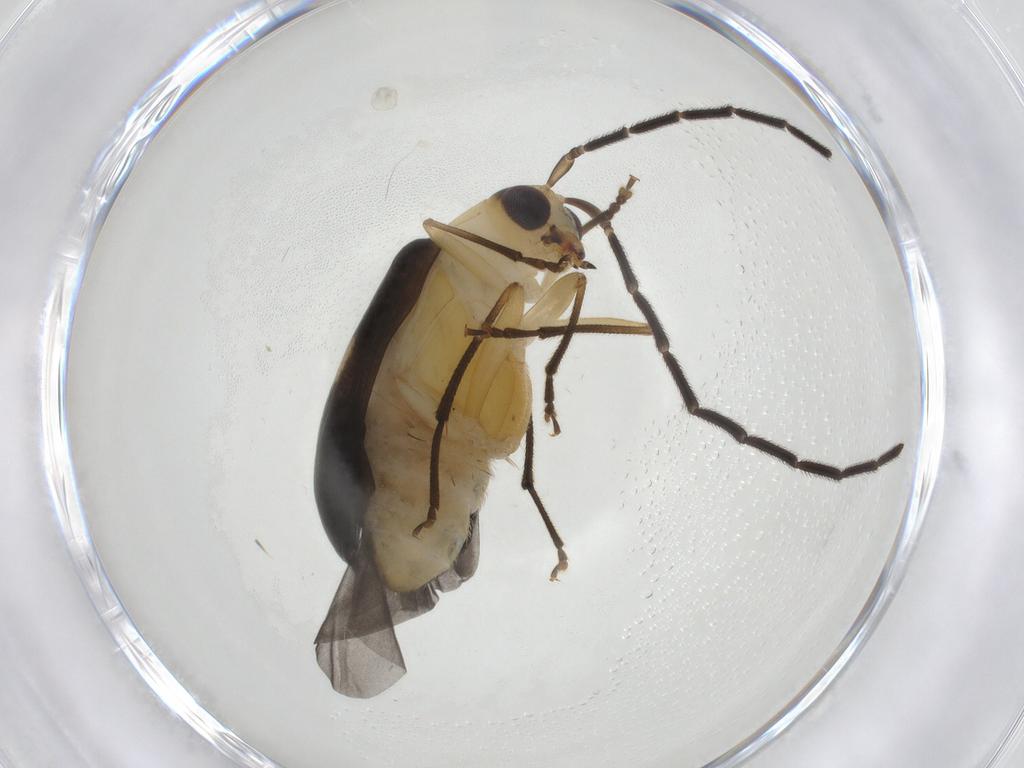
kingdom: Animalia
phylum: Arthropoda
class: Insecta
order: Coleoptera
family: Chrysomelidae
